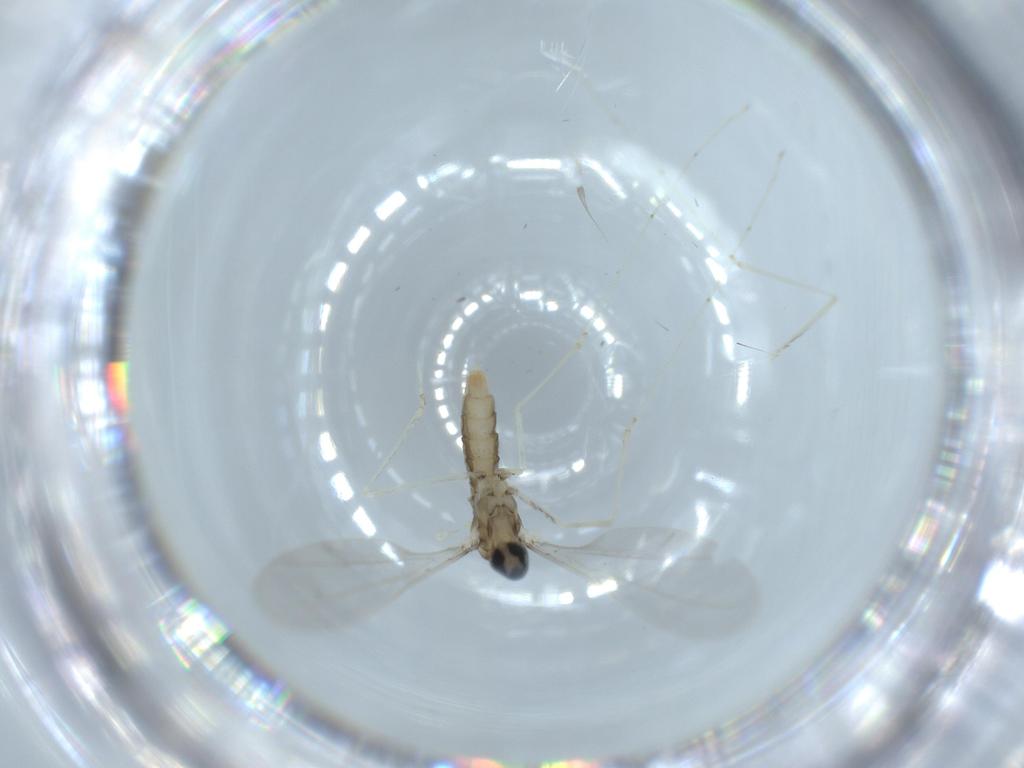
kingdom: Animalia
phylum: Arthropoda
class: Insecta
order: Diptera
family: Cecidomyiidae
